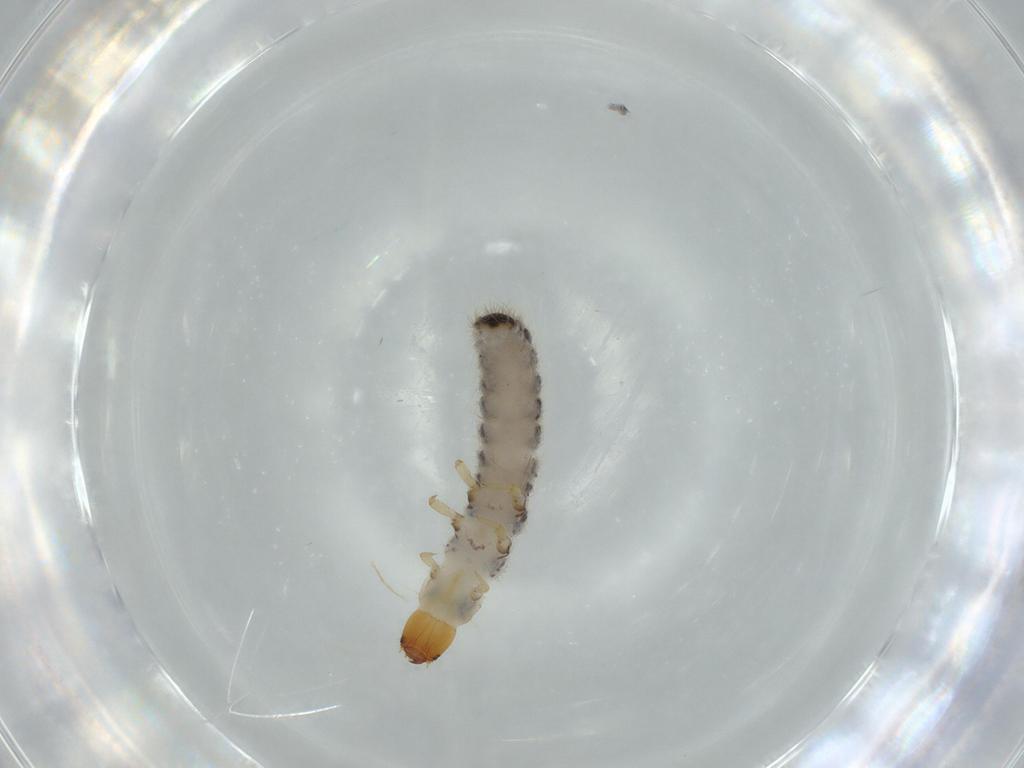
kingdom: Animalia
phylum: Arthropoda
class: Insecta
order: Coleoptera
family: Cleridae
